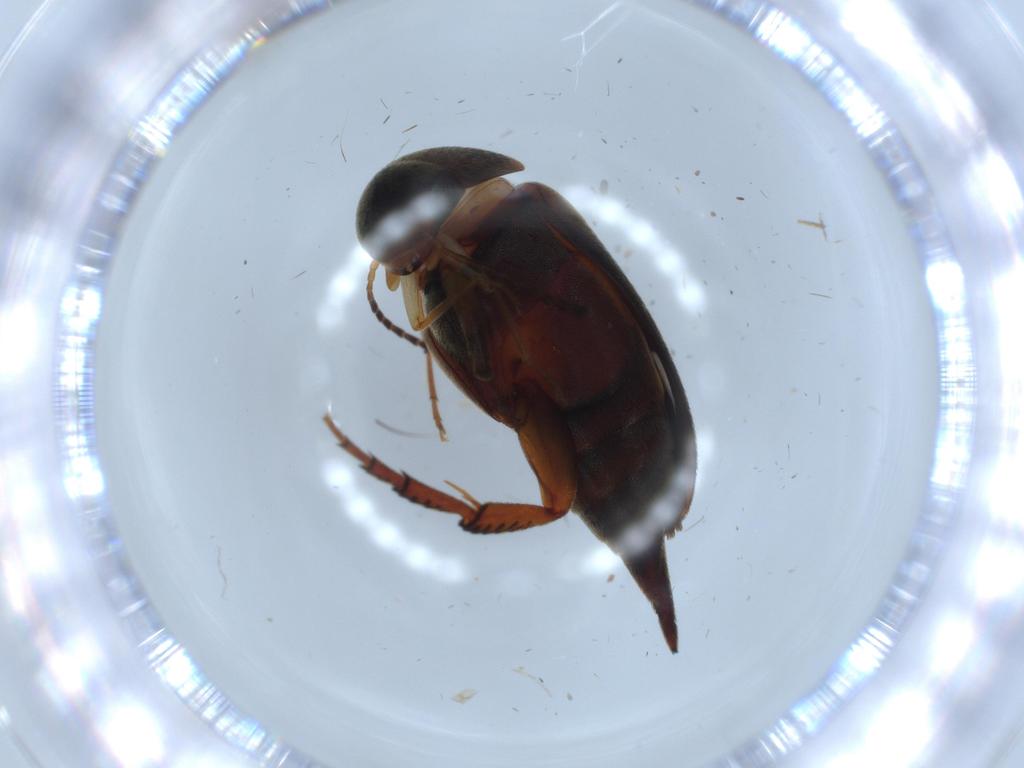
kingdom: Animalia
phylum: Arthropoda
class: Insecta
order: Coleoptera
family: Mordellidae
